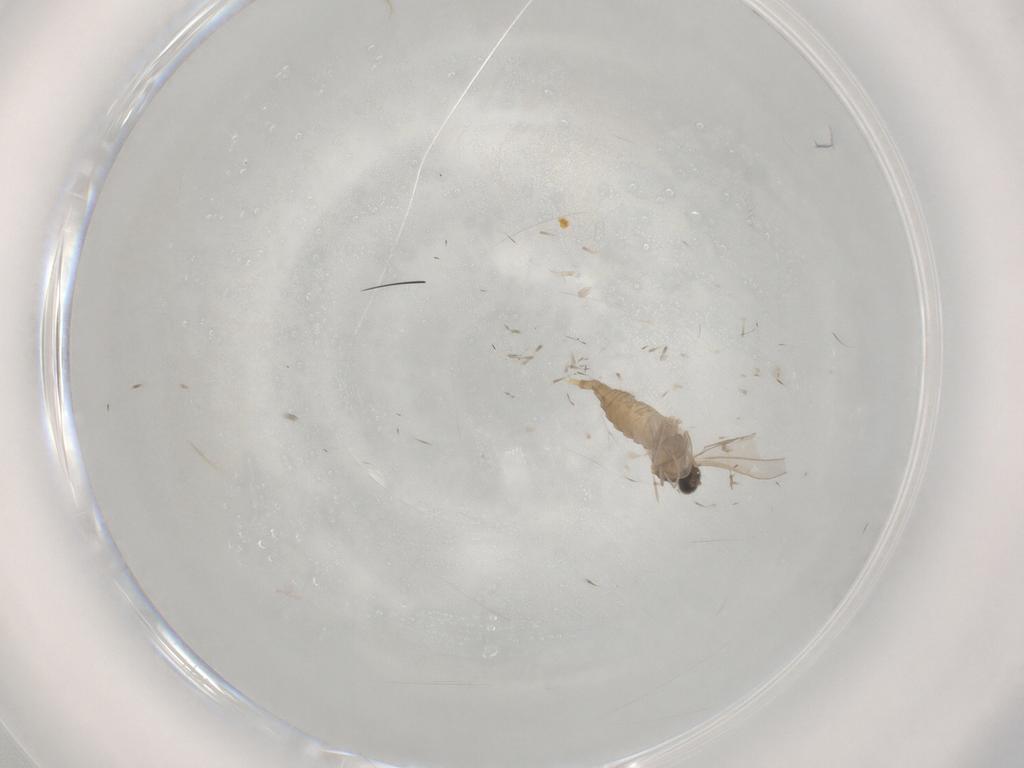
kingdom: Animalia
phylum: Arthropoda
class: Insecta
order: Diptera
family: Cecidomyiidae
